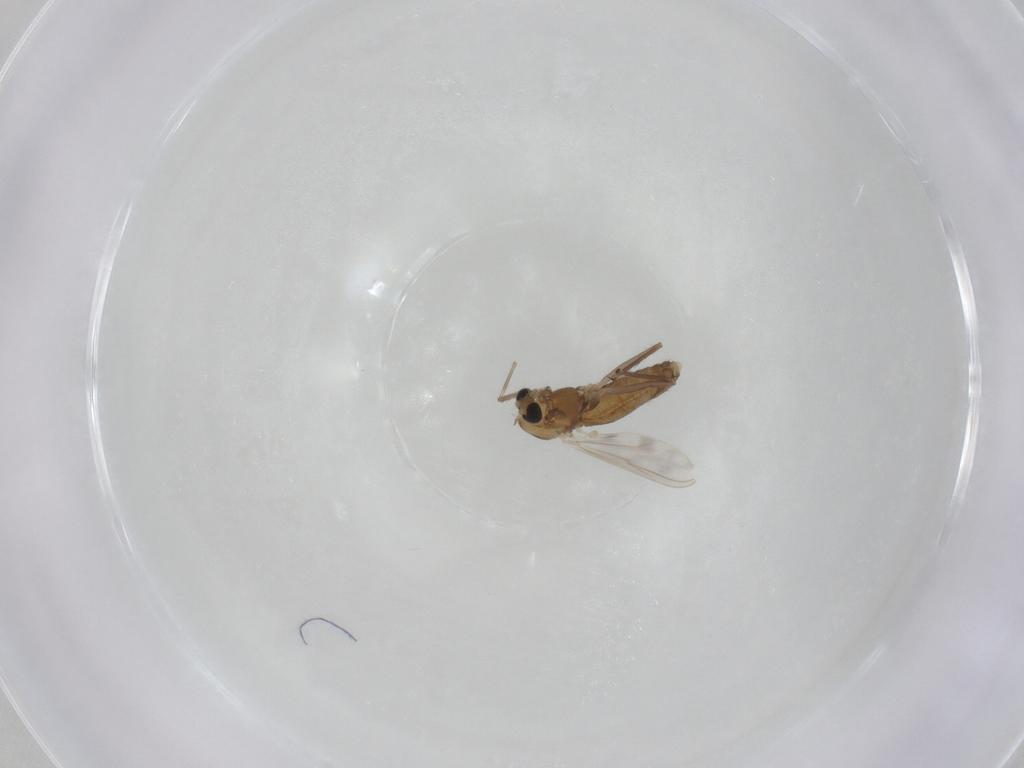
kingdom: Animalia
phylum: Arthropoda
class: Insecta
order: Diptera
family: Chironomidae
